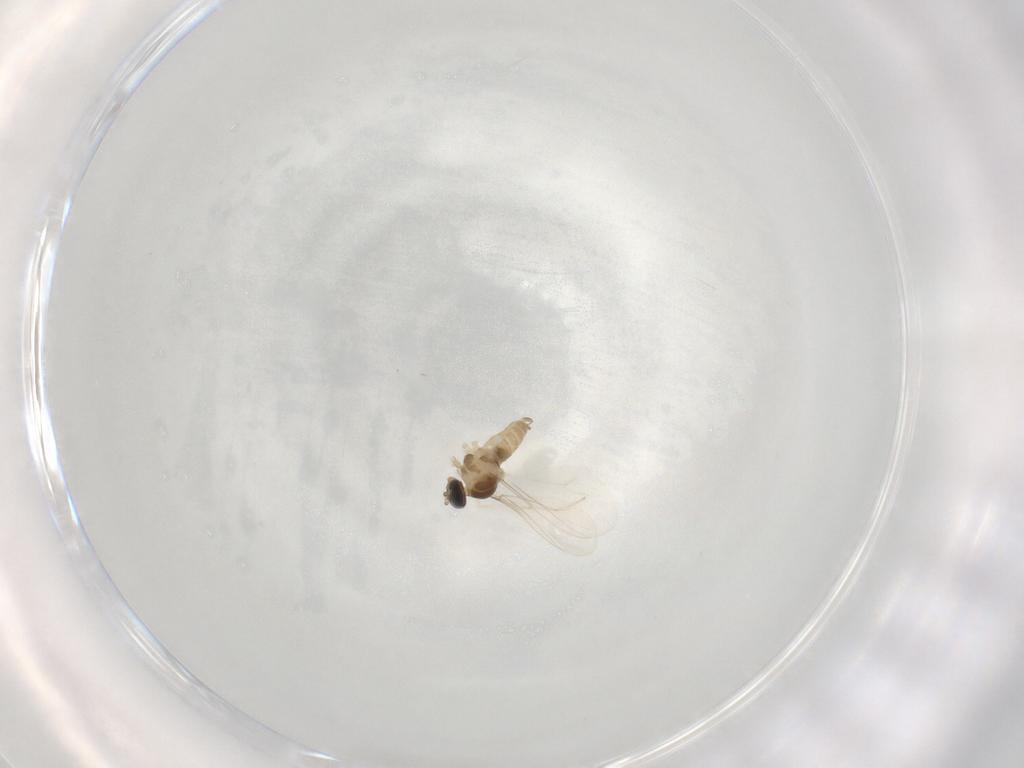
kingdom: Animalia
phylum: Arthropoda
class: Insecta
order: Diptera
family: Cecidomyiidae
